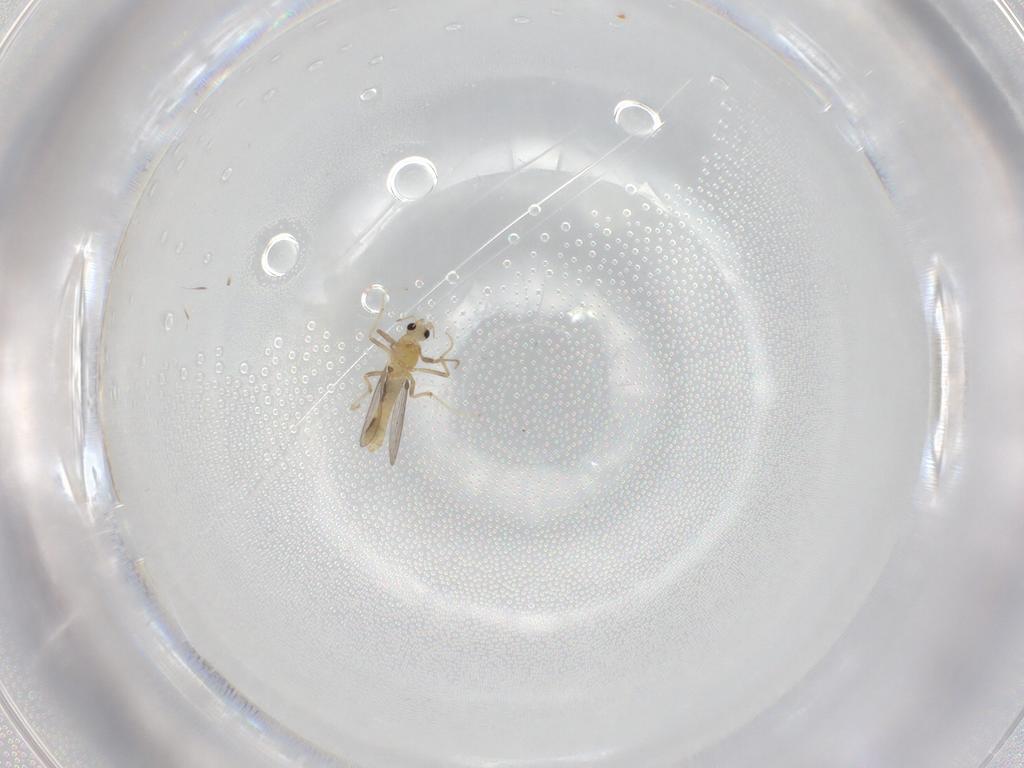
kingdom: Animalia
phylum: Arthropoda
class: Insecta
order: Diptera
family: Chironomidae
